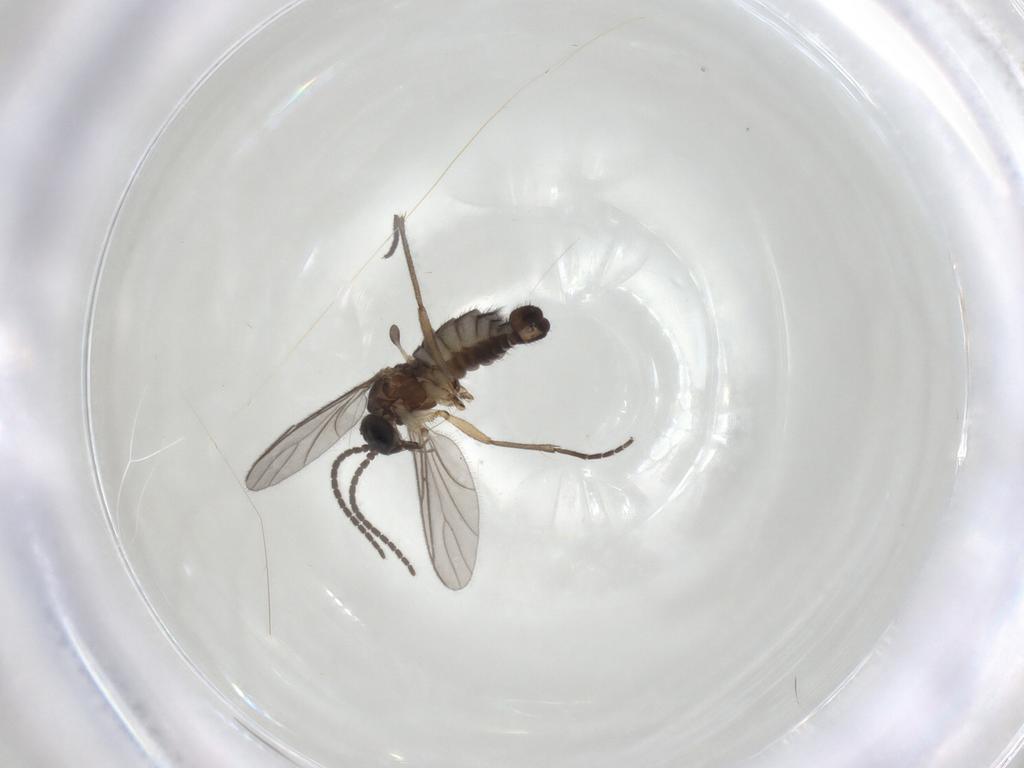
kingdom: Animalia
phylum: Arthropoda
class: Insecta
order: Diptera
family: Sciaridae
